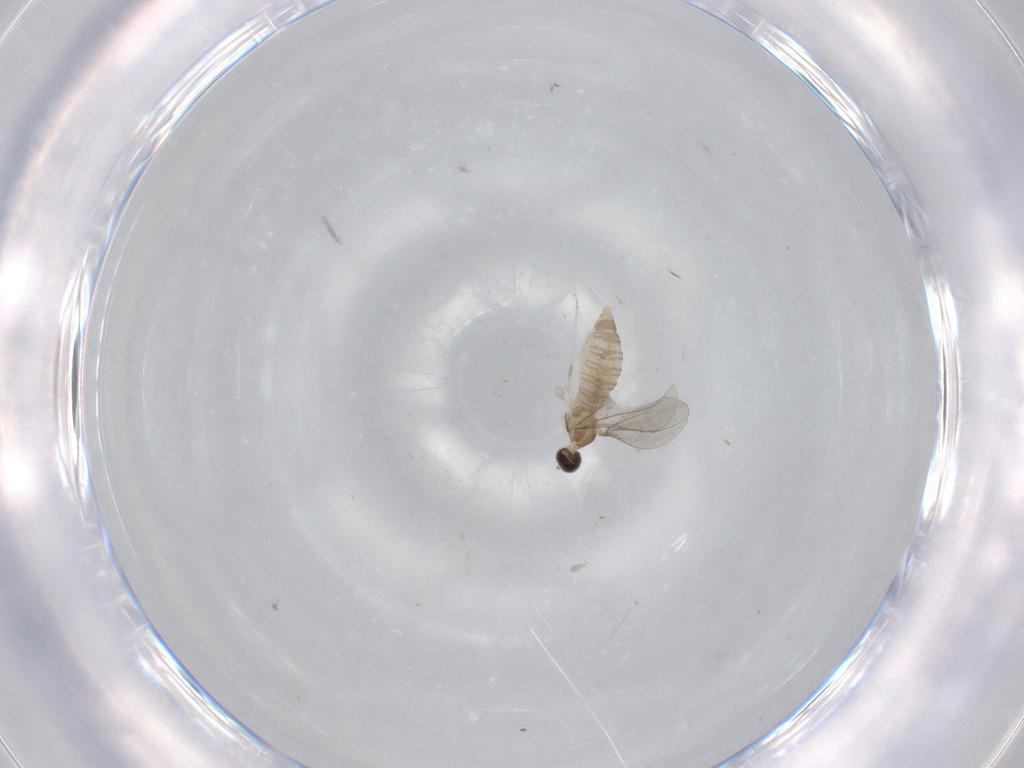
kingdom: Animalia
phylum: Arthropoda
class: Insecta
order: Diptera
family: Cecidomyiidae
